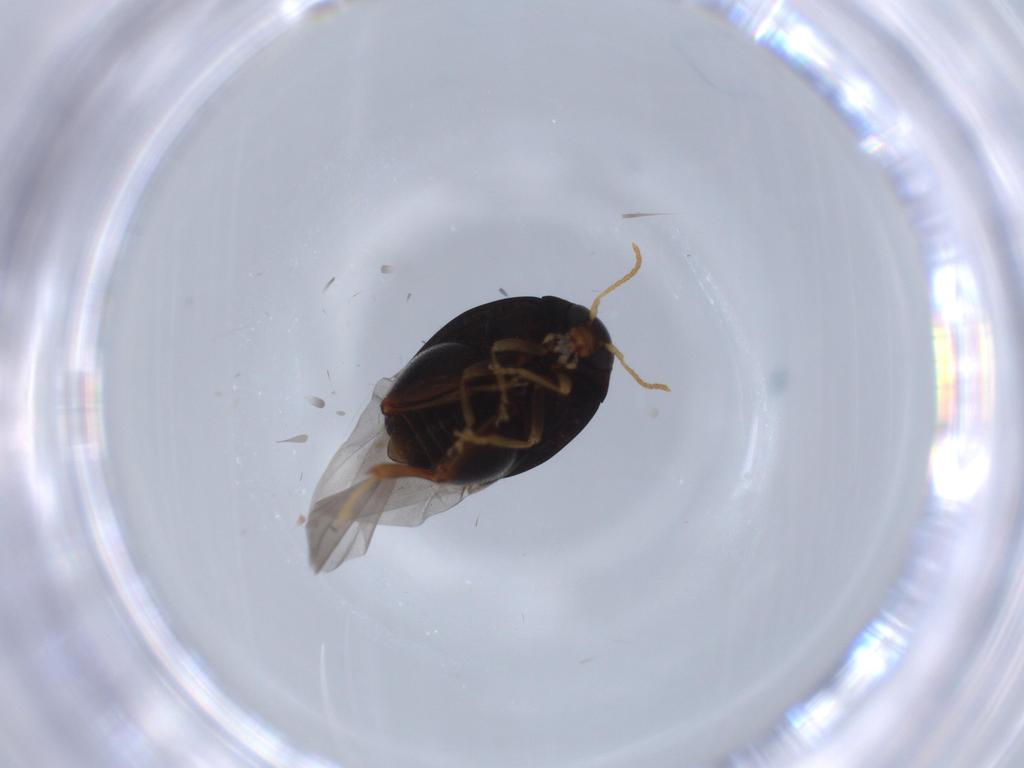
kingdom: Animalia
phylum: Arthropoda
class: Insecta
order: Coleoptera
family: Chrysomelidae
